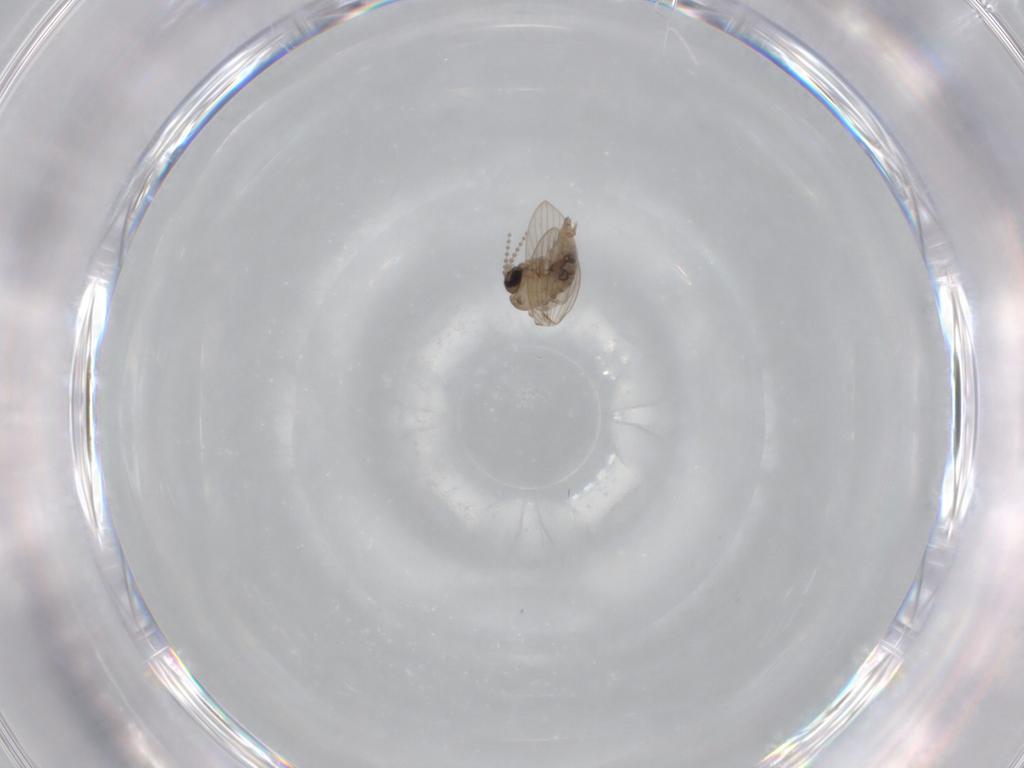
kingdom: Animalia
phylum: Arthropoda
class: Insecta
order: Diptera
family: Psychodidae
